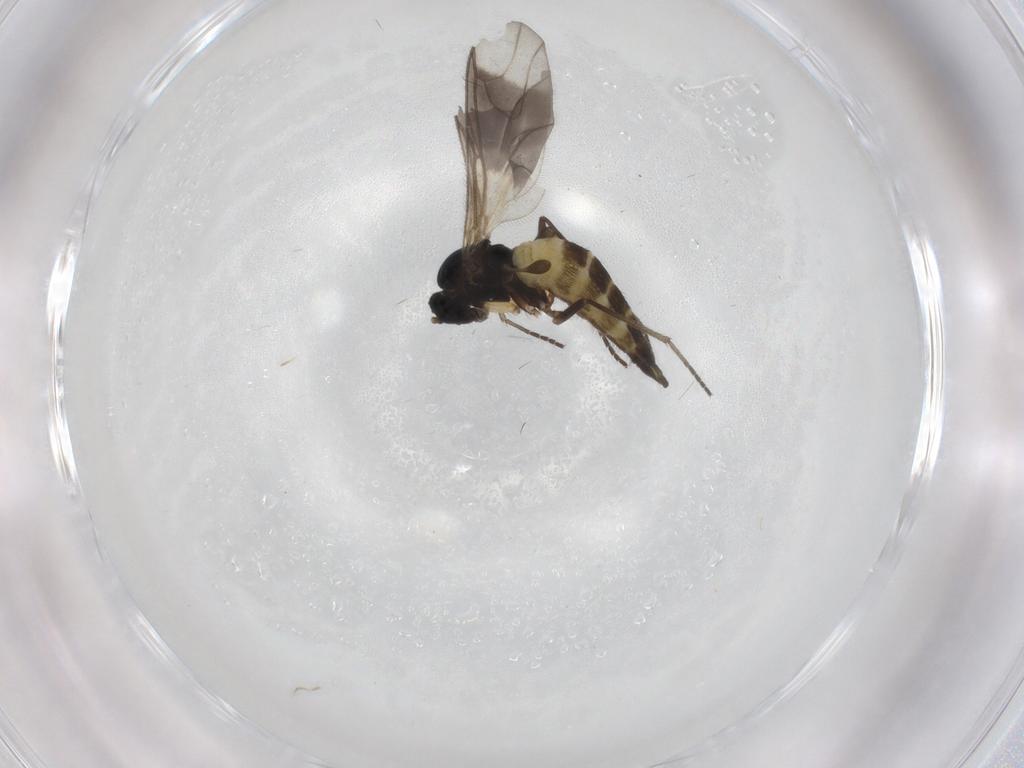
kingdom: Animalia
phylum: Arthropoda
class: Insecta
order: Diptera
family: Sciaridae
